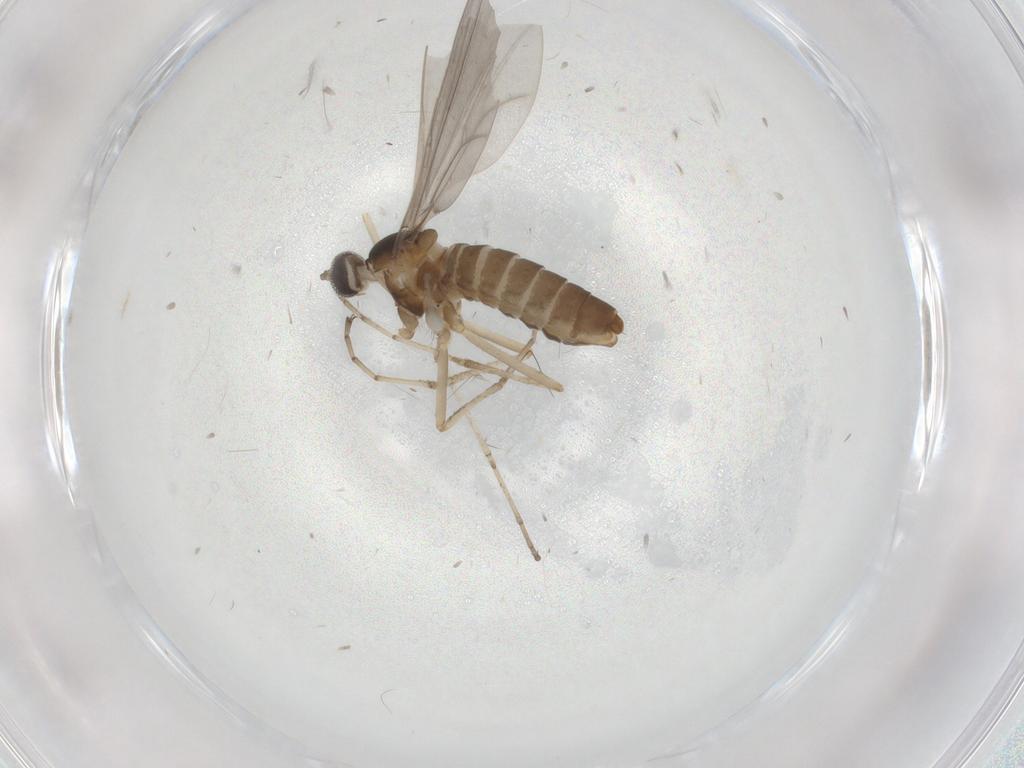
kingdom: Animalia
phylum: Arthropoda
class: Insecta
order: Diptera
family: Cecidomyiidae
